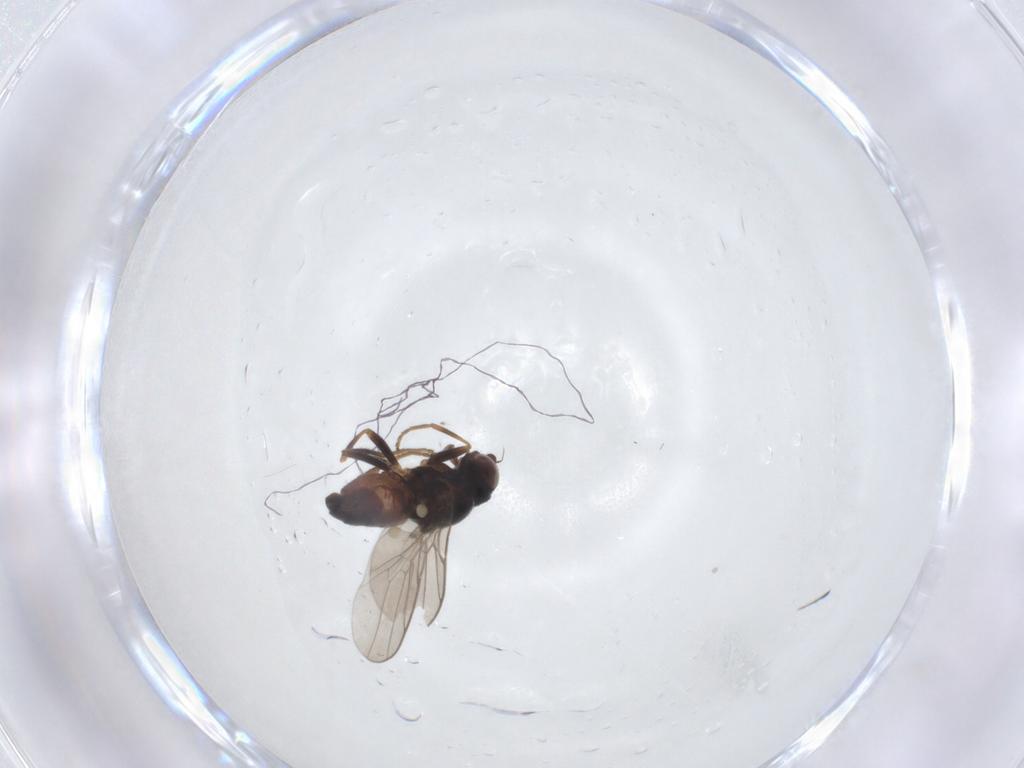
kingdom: Animalia
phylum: Arthropoda
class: Insecta
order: Diptera
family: Chloropidae
